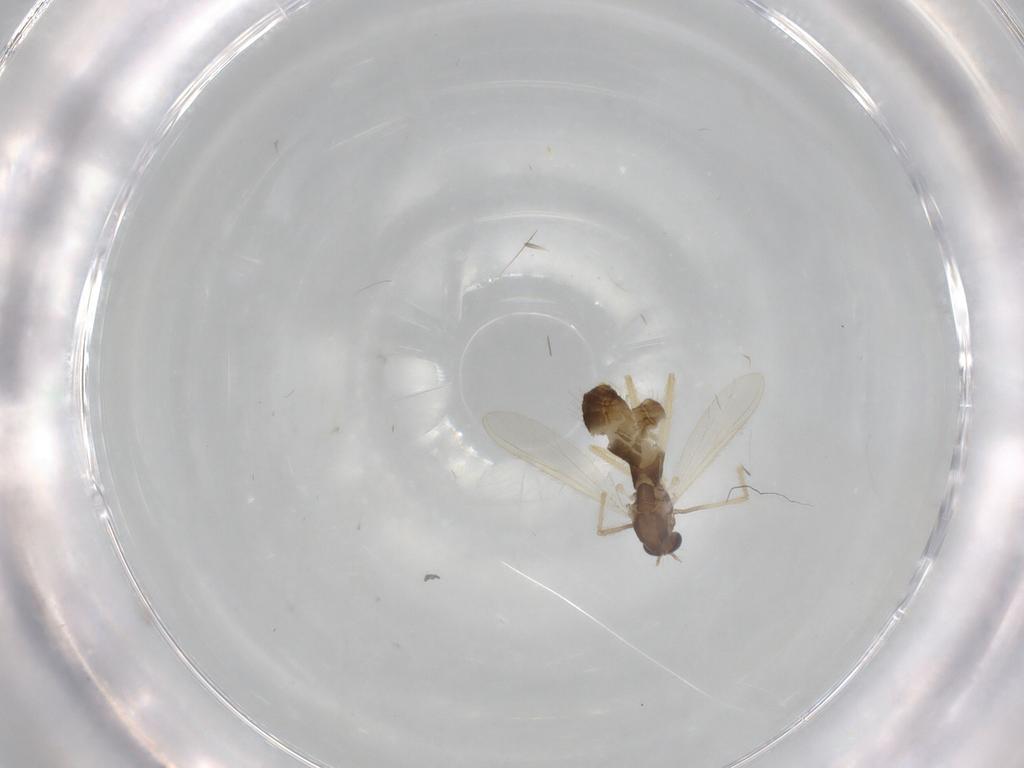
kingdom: Animalia
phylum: Arthropoda
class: Insecta
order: Diptera
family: Chironomidae
